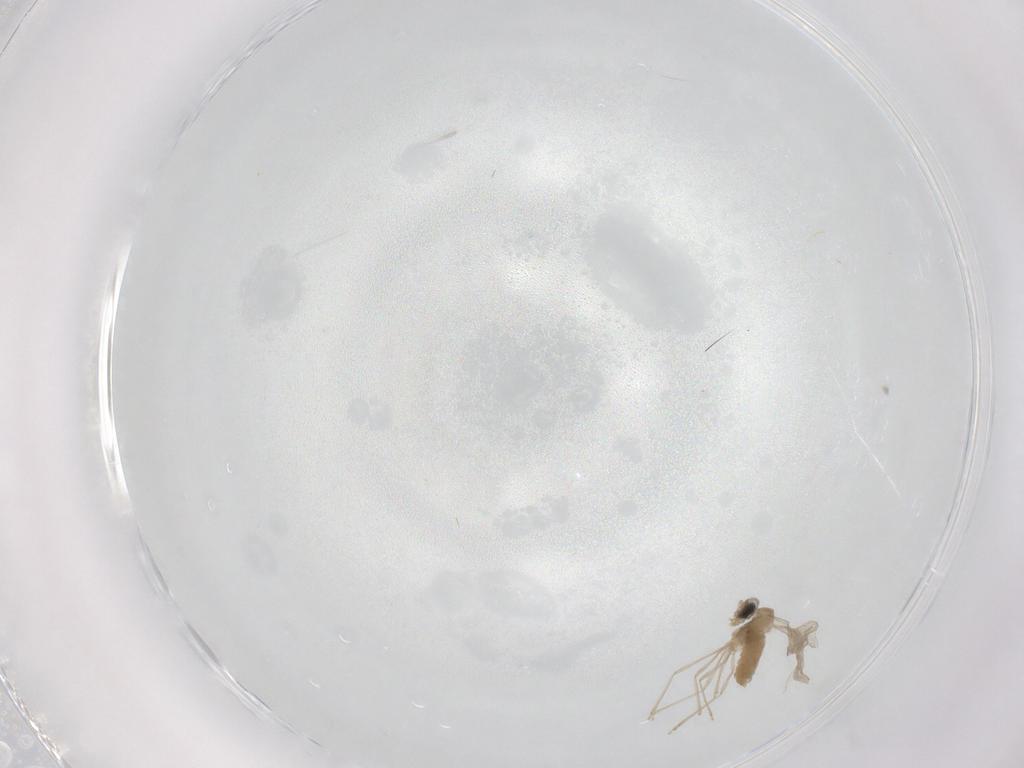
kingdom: Animalia
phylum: Arthropoda
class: Insecta
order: Diptera
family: Cecidomyiidae
